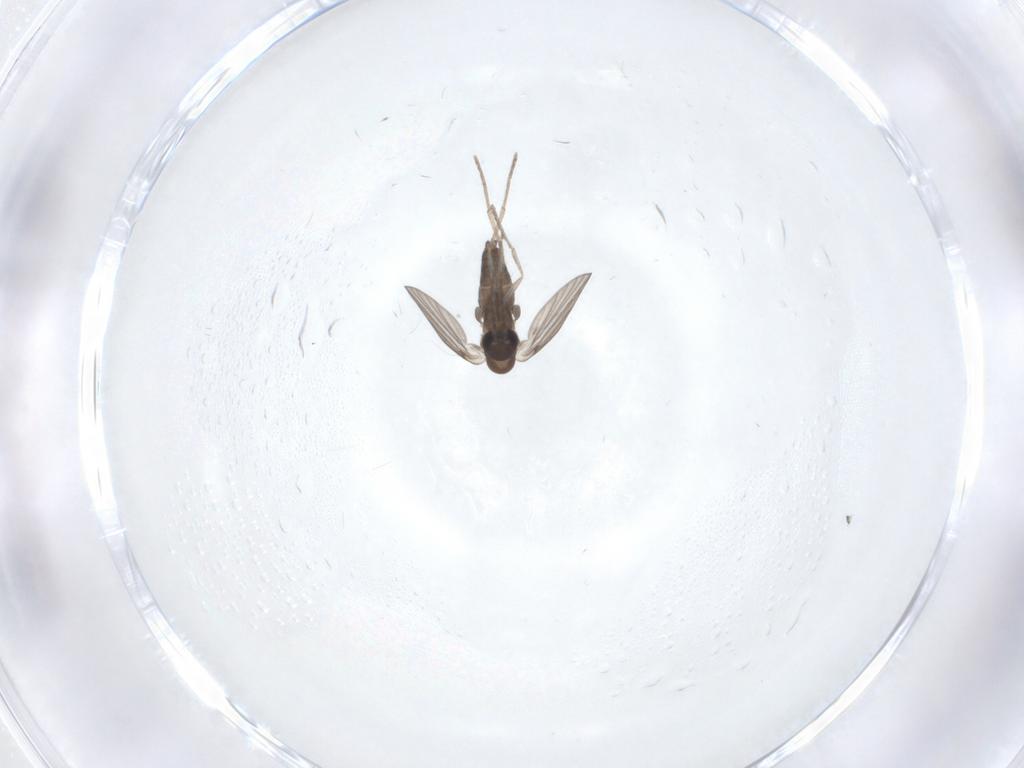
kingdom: Animalia
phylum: Arthropoda
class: Insecta
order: Diptera
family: Sciaridae
